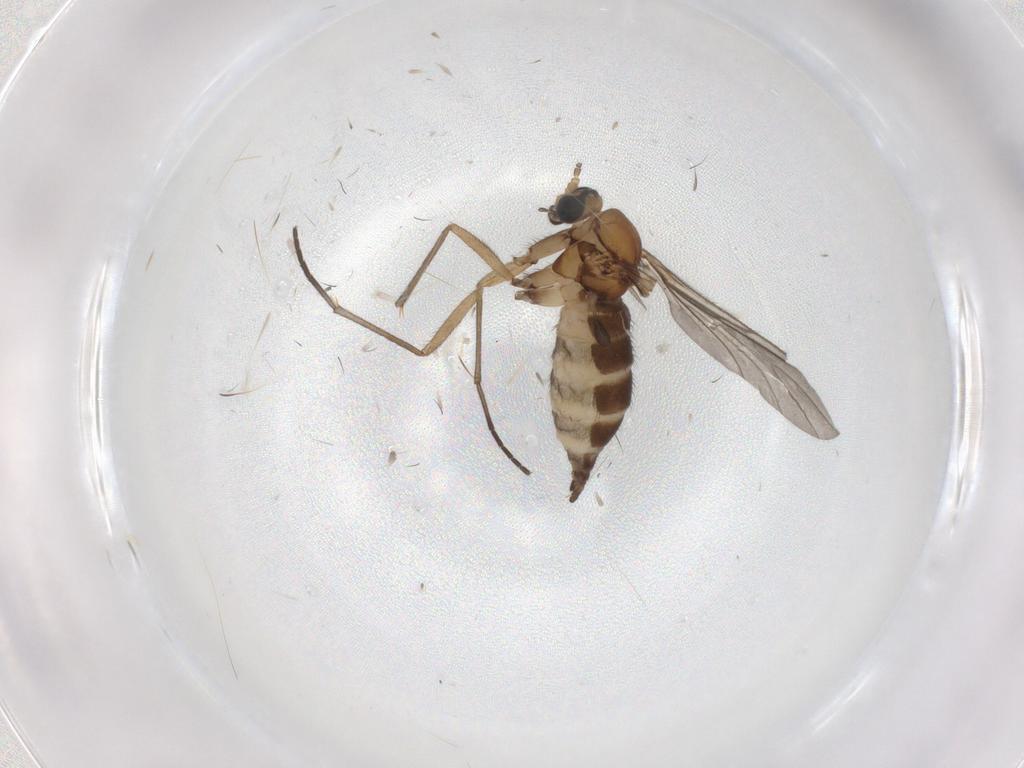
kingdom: Animalia
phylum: Arthropoda
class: Insecta
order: Diptera
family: Sciaridae
